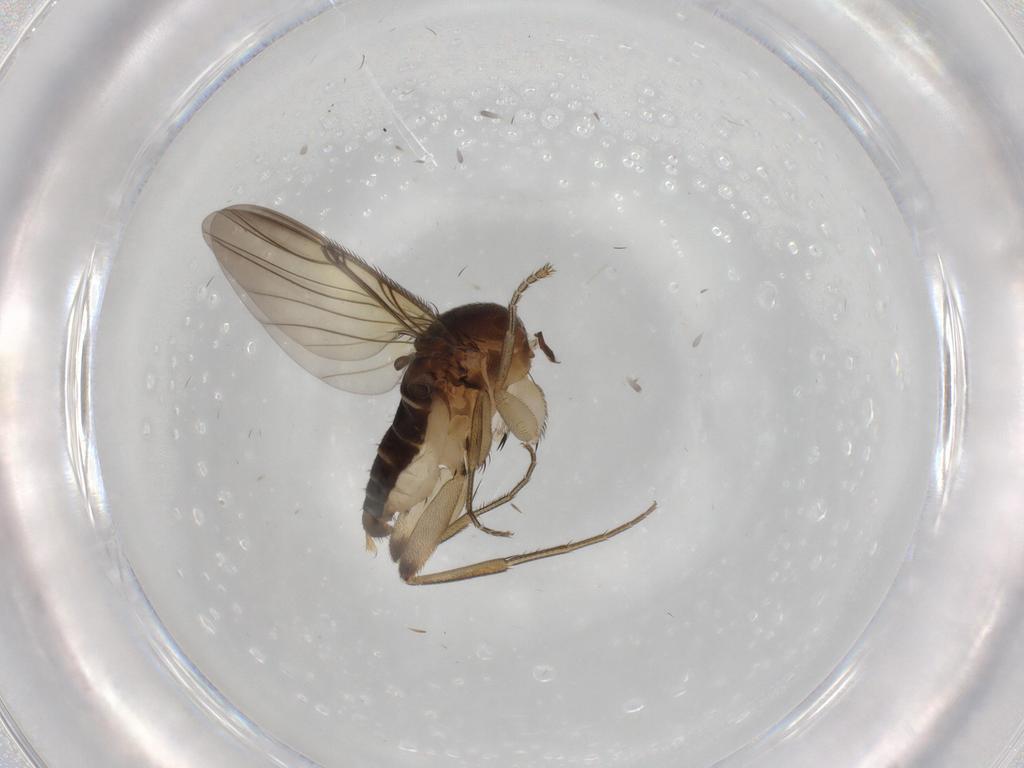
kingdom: Animalia
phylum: Arthropoda
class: Insecta
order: Diptera
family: Phoridae
